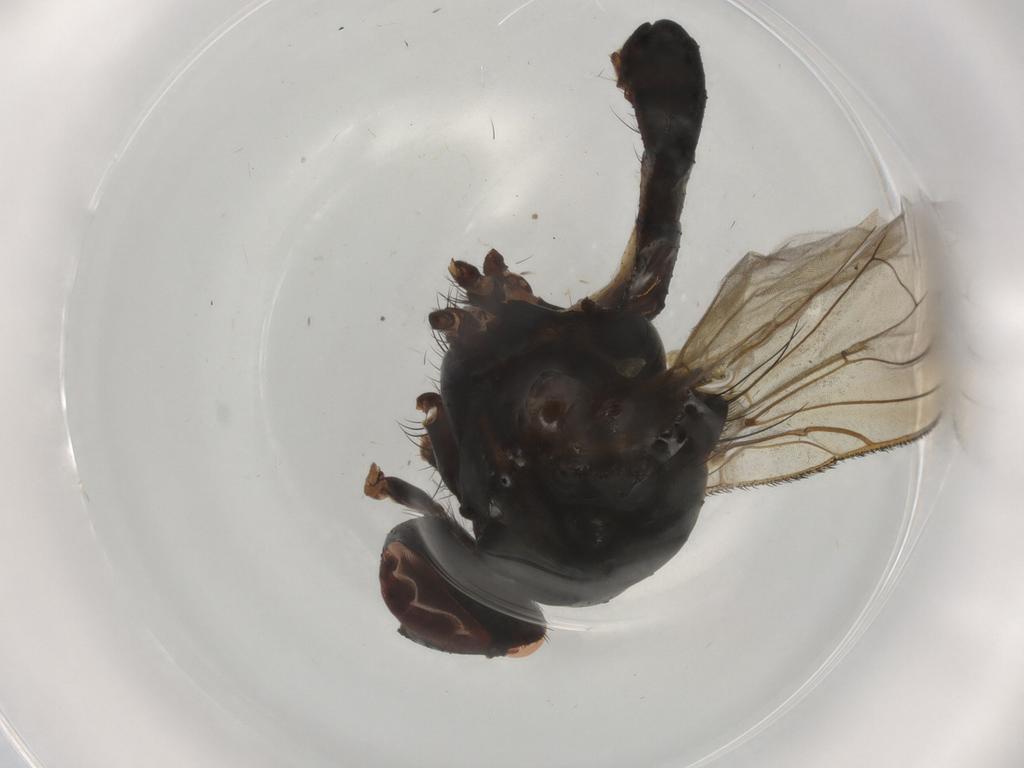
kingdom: Animalia
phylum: Arthropoda
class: Insecta
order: Diptera
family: Anthomyiidae
